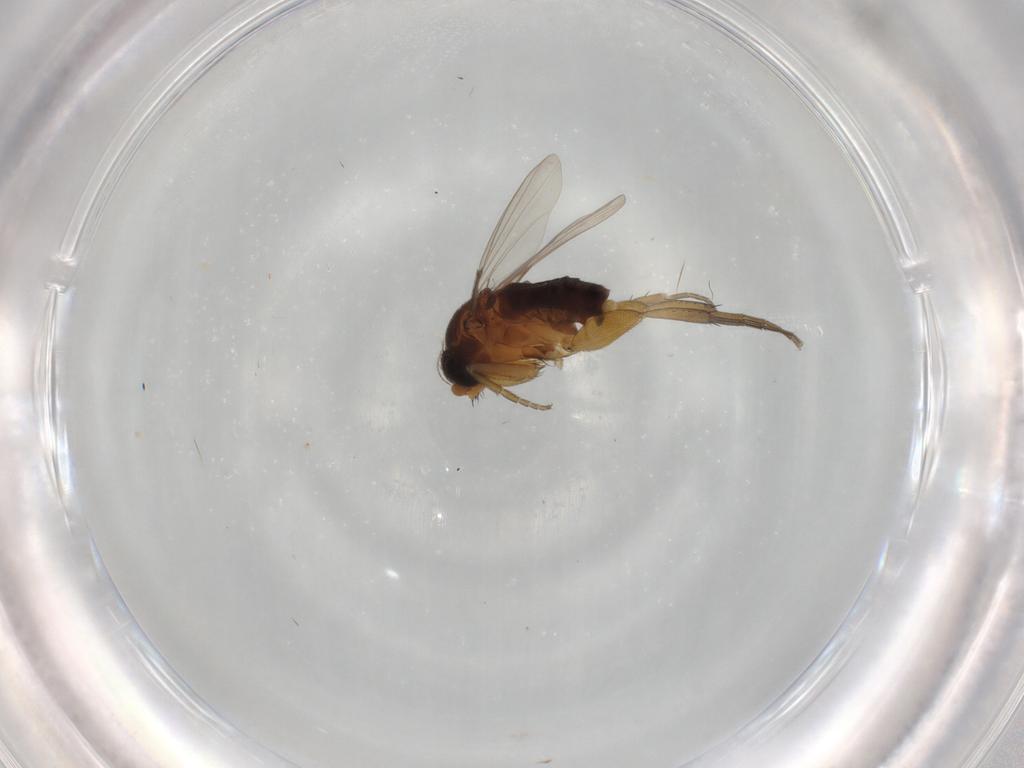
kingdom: Animalia
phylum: Arthropoda
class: Insecta
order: Diptera
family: Phoridae
